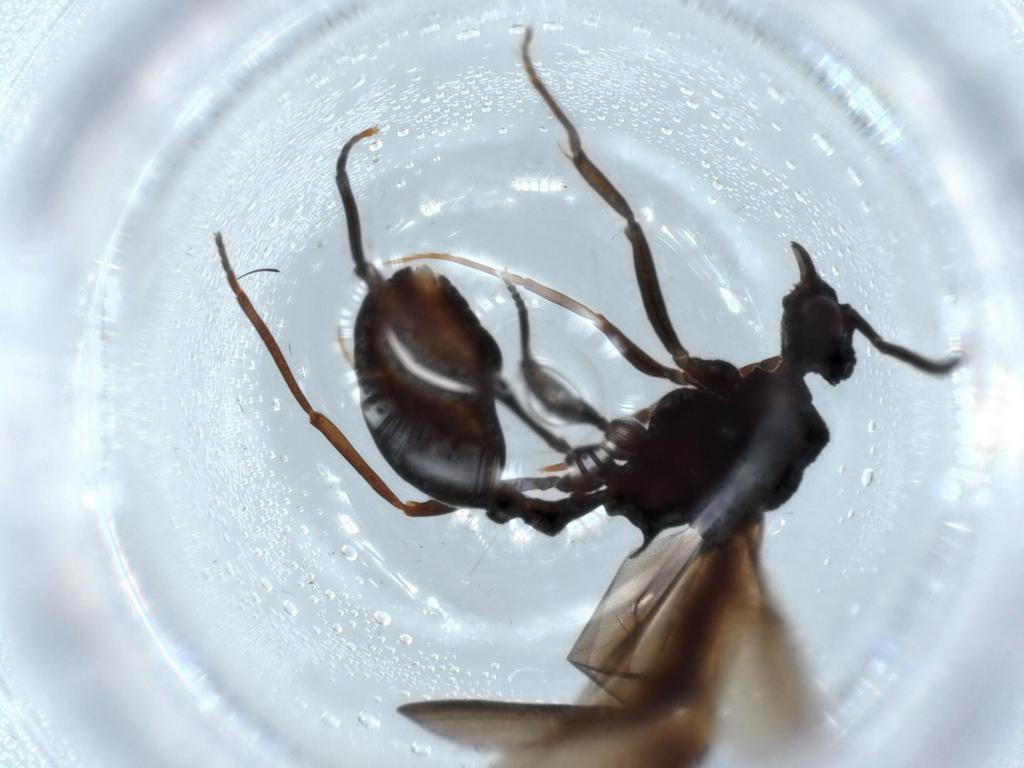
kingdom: Animalia
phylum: Arthropoda
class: Insecta
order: Hymenoptera
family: Formicidae
